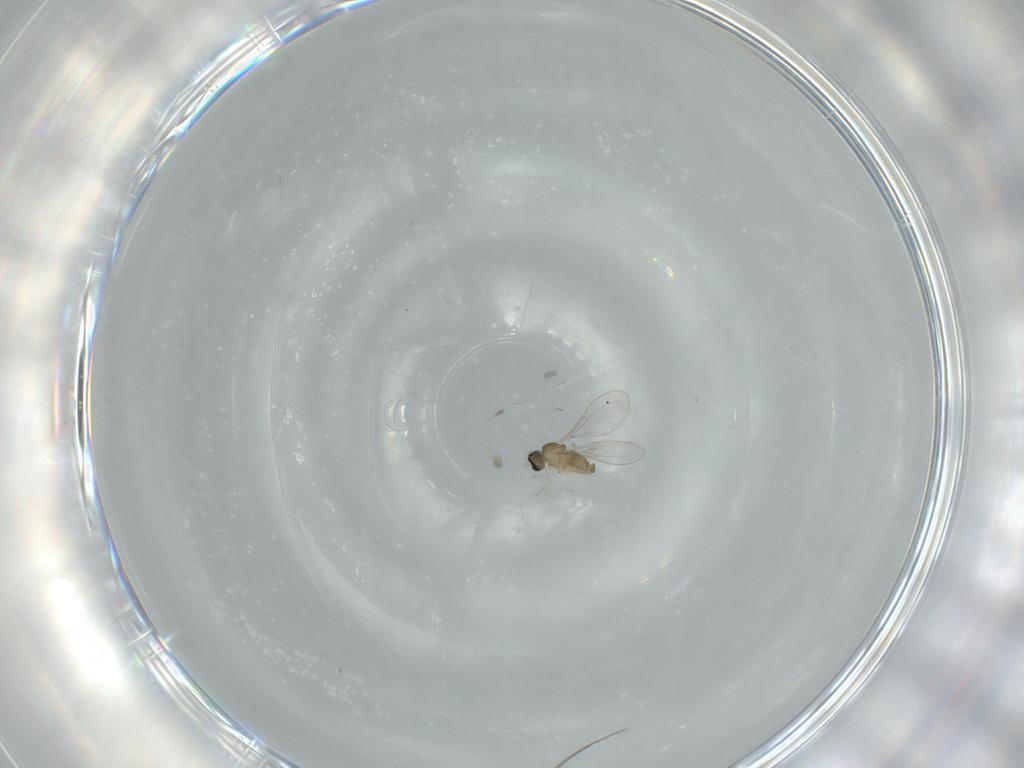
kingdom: Animalia
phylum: Arthropoda
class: Insecta
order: Diptera
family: Cecidomyiidae
